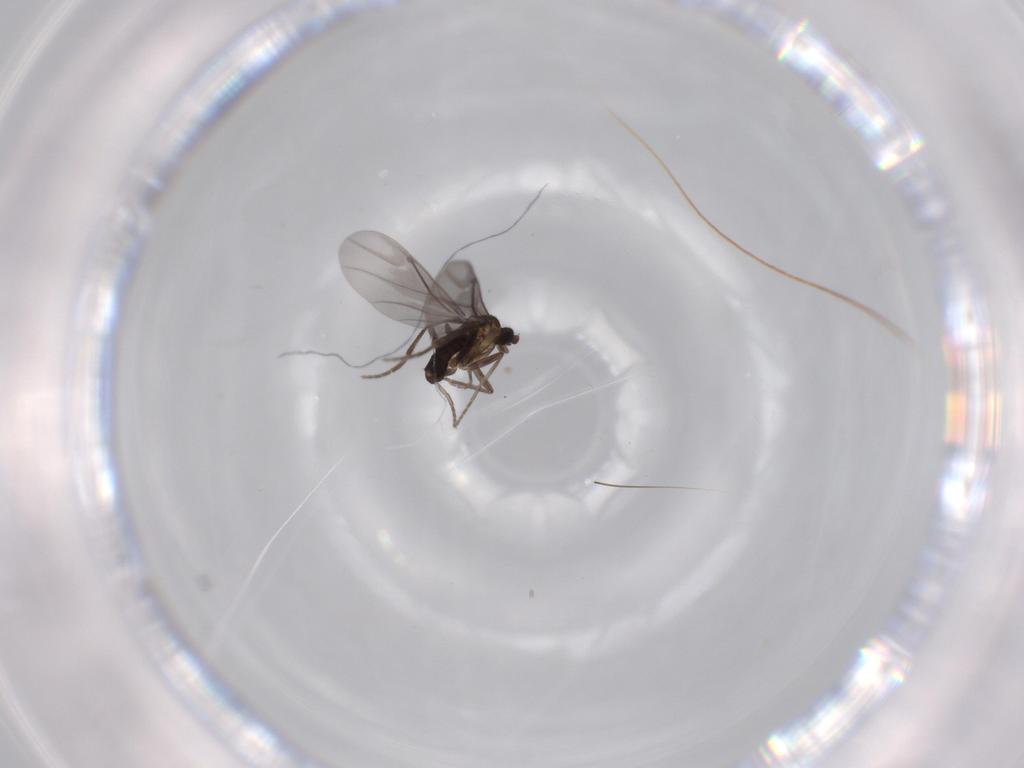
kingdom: Animalia
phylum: Arthropoda
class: Insecta
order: Diptera
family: Phoridae
